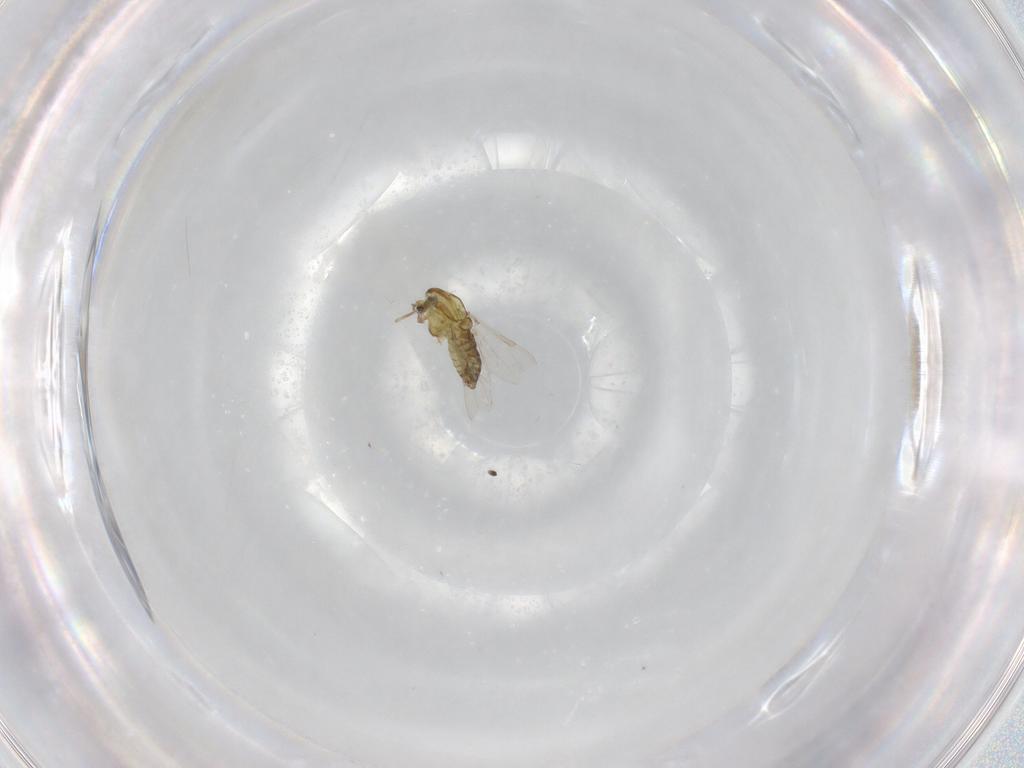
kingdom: Animalia
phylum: Arthropoda
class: Insecta
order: Diptera
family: Chironomidae
